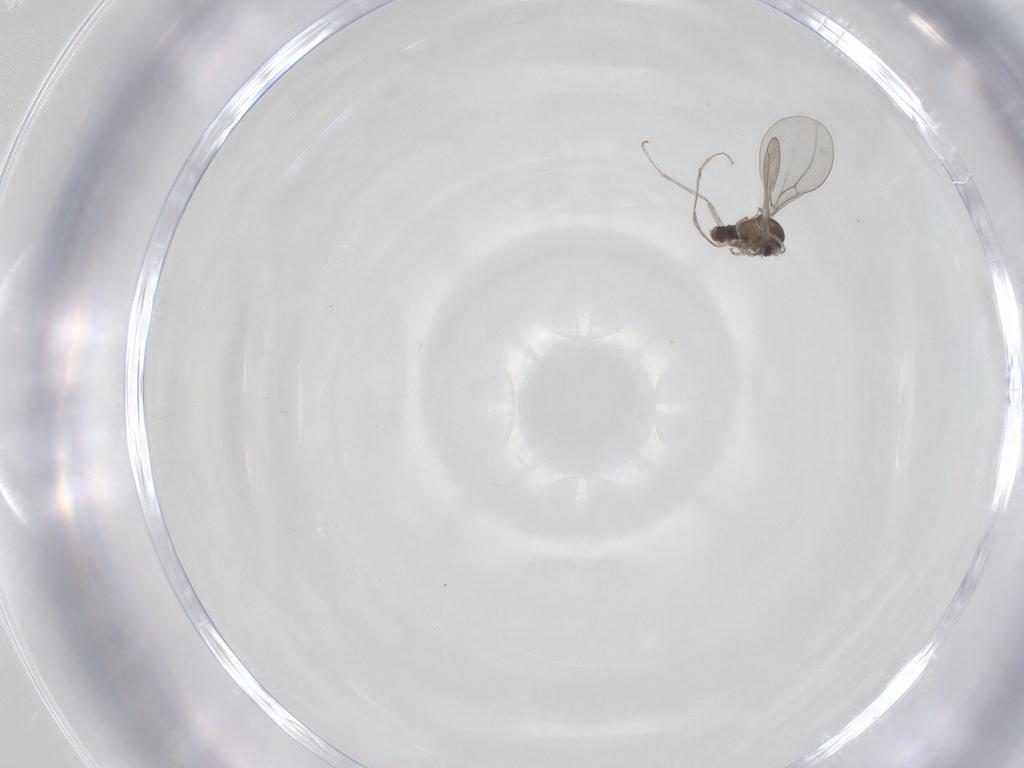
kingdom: Animalia
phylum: Arthropoda
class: Insecta
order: Diptera
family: Cecidomyiidae
